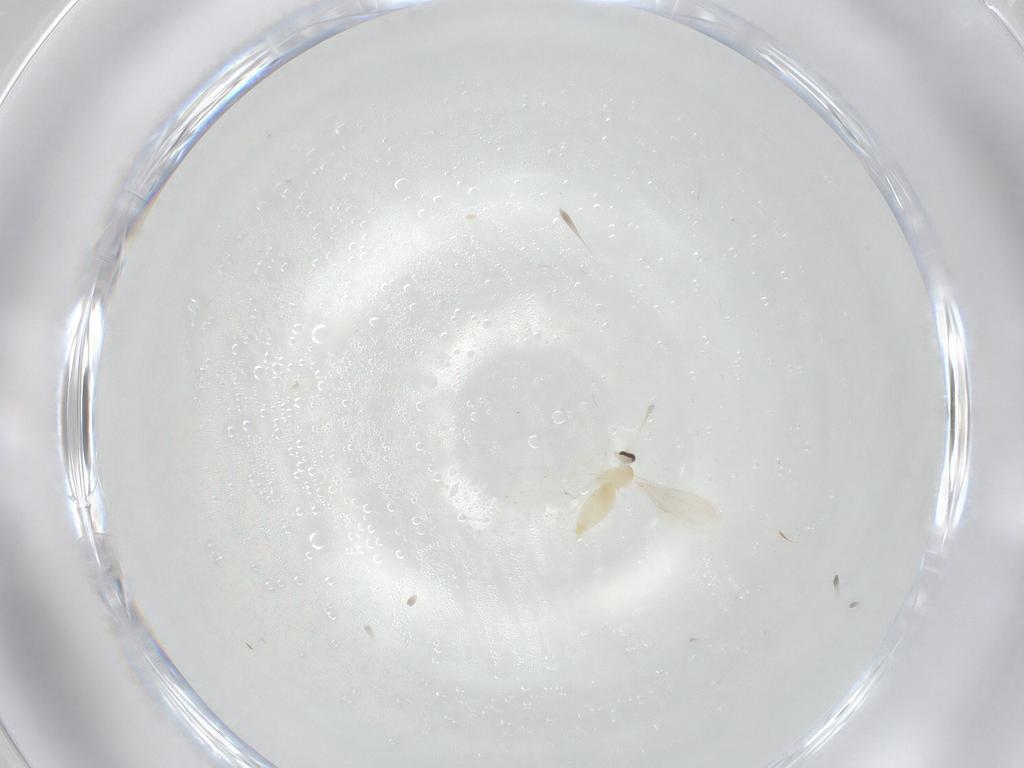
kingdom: Animalia
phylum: Arthropoda
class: Insecta
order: Diptera
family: Cecidomyiidae
